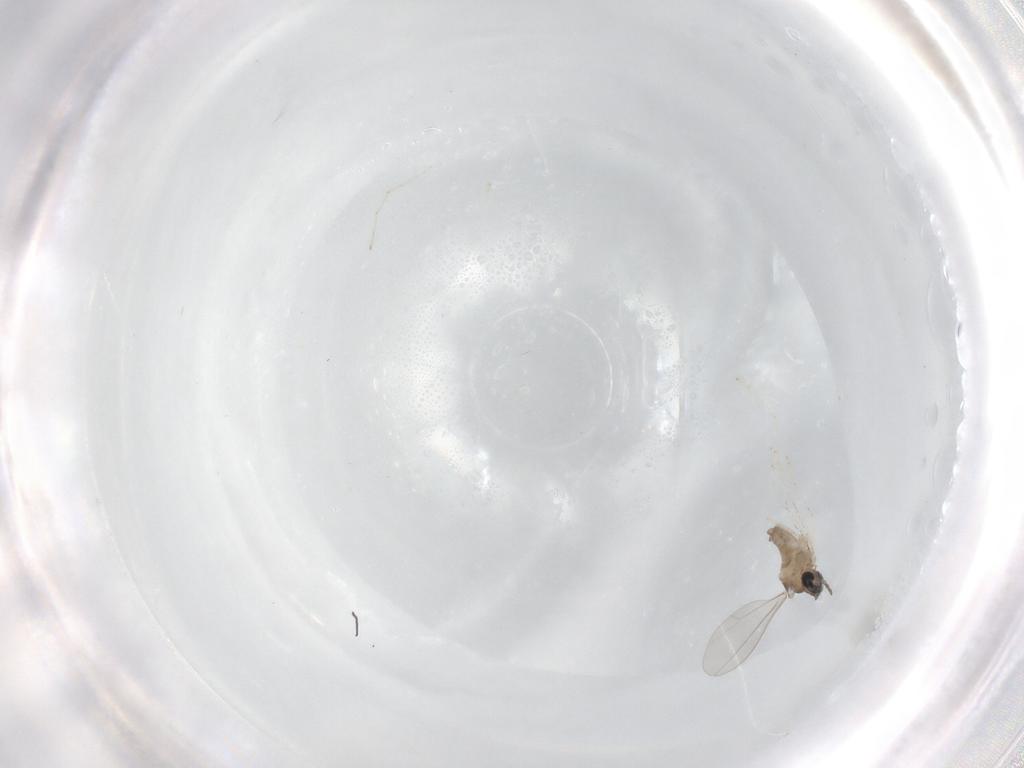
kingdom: Animalia
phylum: Arthropoda
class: Insecta
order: Diptera
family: Cecidomyiidae
